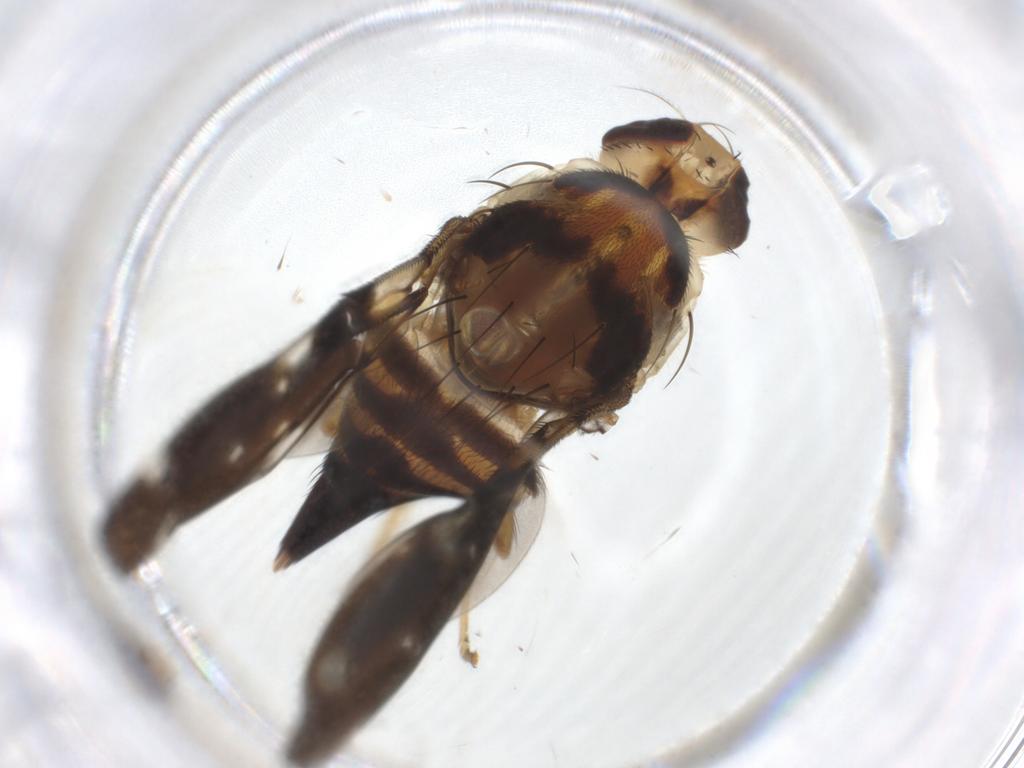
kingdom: Animalia
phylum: Arthropoda
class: Insecta
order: Diptera
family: Tephritidae
